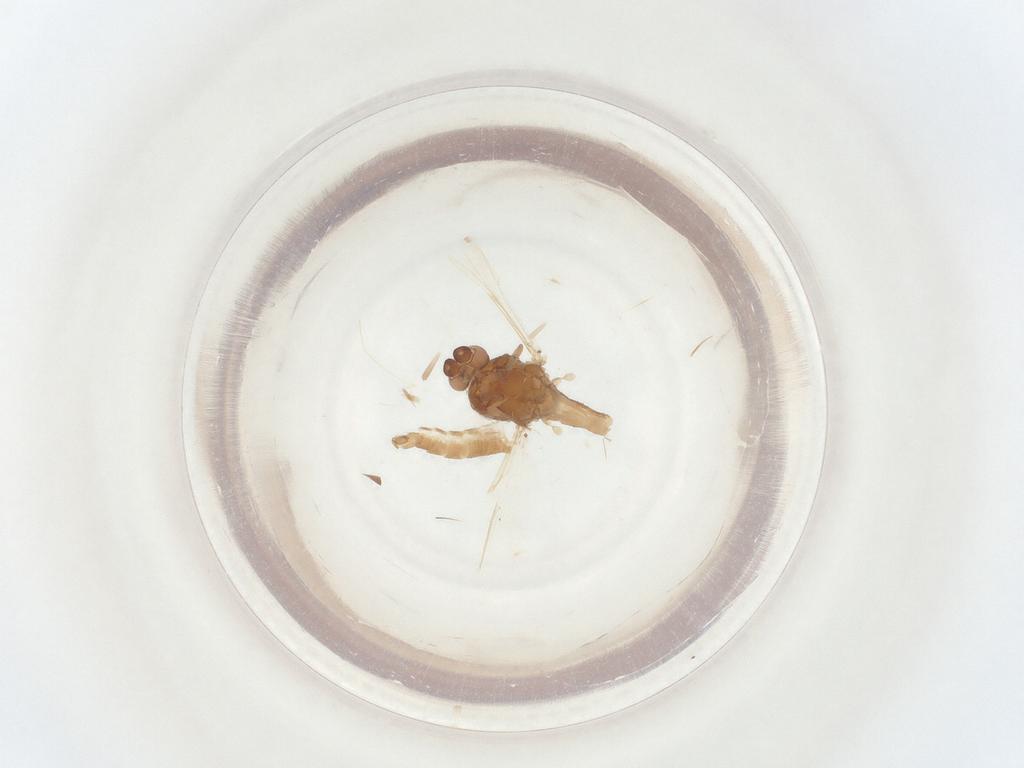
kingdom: Animalia
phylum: Arthropoda
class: Insecta
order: Diptera
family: Ceratopogonidae
